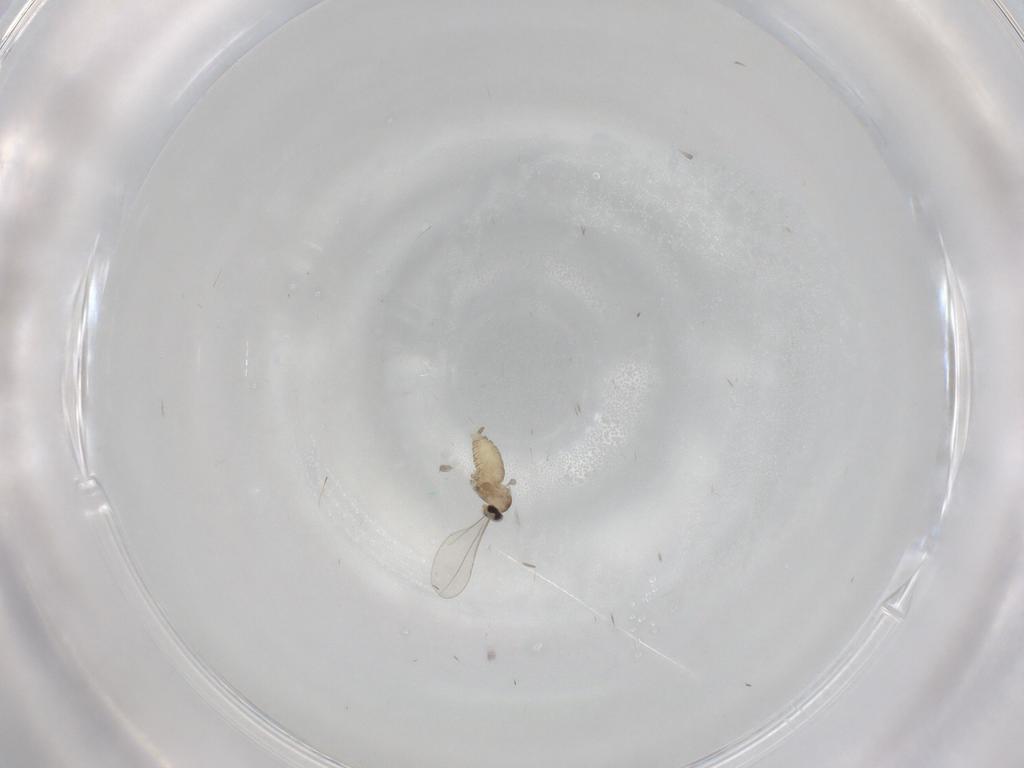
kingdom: Animalia
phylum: Arthropoda
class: Insecta
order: Diptera
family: Cecidomyiidae
